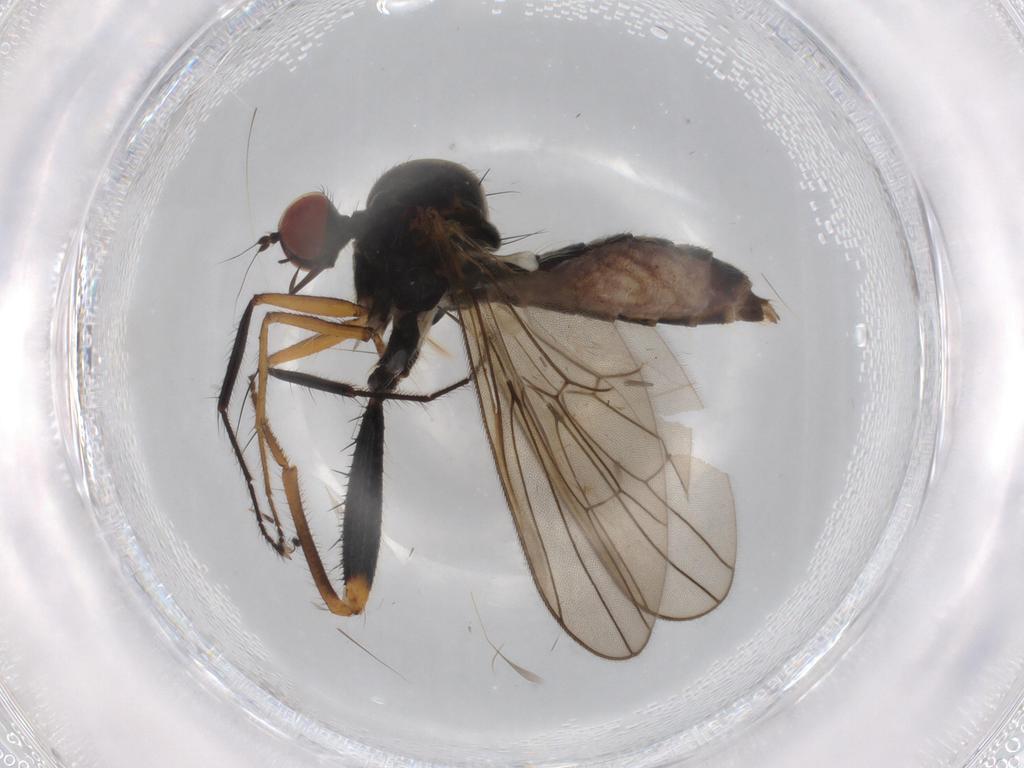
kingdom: Animalia
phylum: Arthropoda
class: Insecta
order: Diptera
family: Hybotidae
